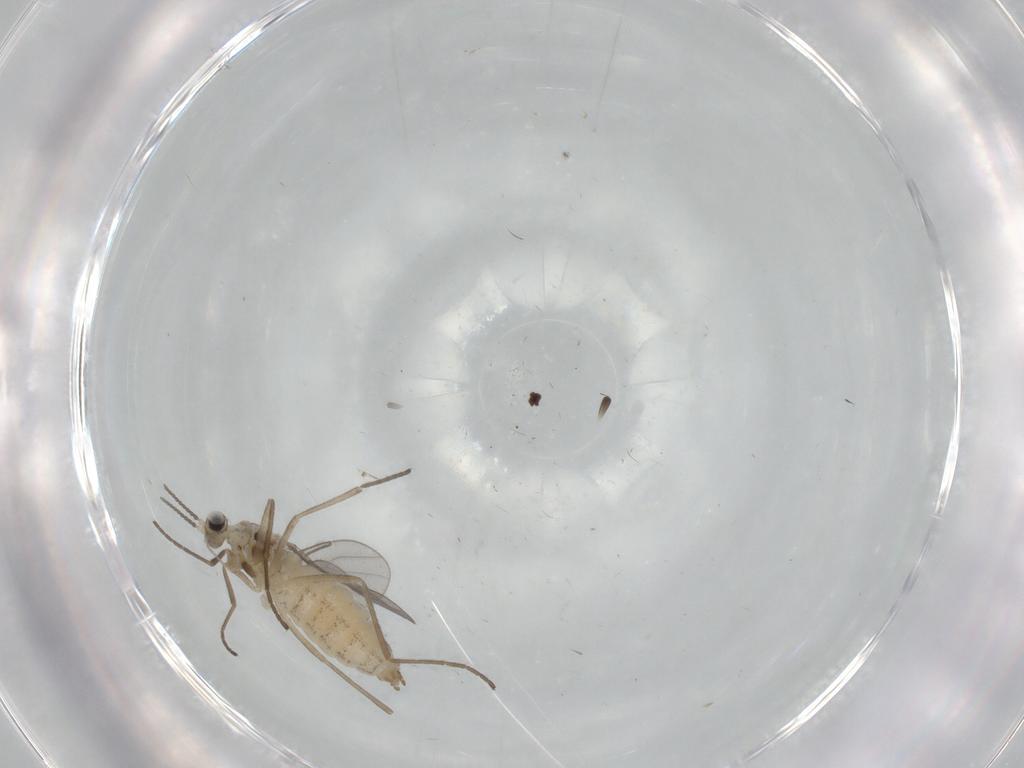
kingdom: Animalia
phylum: Arthropoda
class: Insecta
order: Diptera
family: Cecidomyiidae
